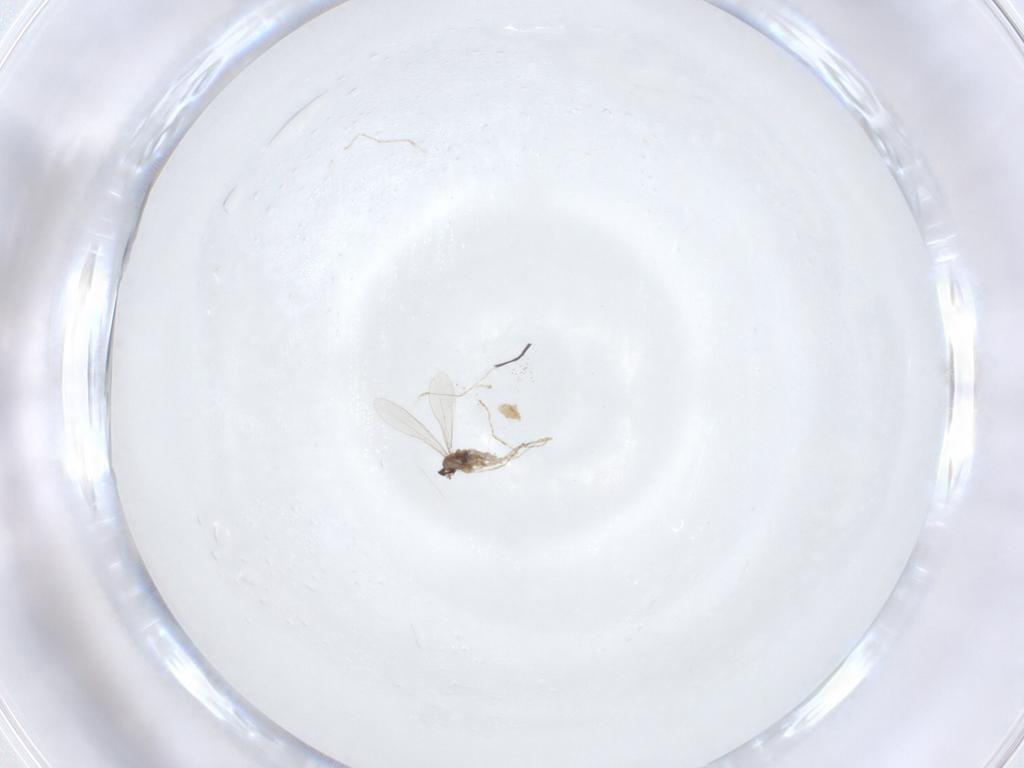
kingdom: Animalia
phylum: Arthropoda
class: Insecta
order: Diptera
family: Cecidomyiidae
